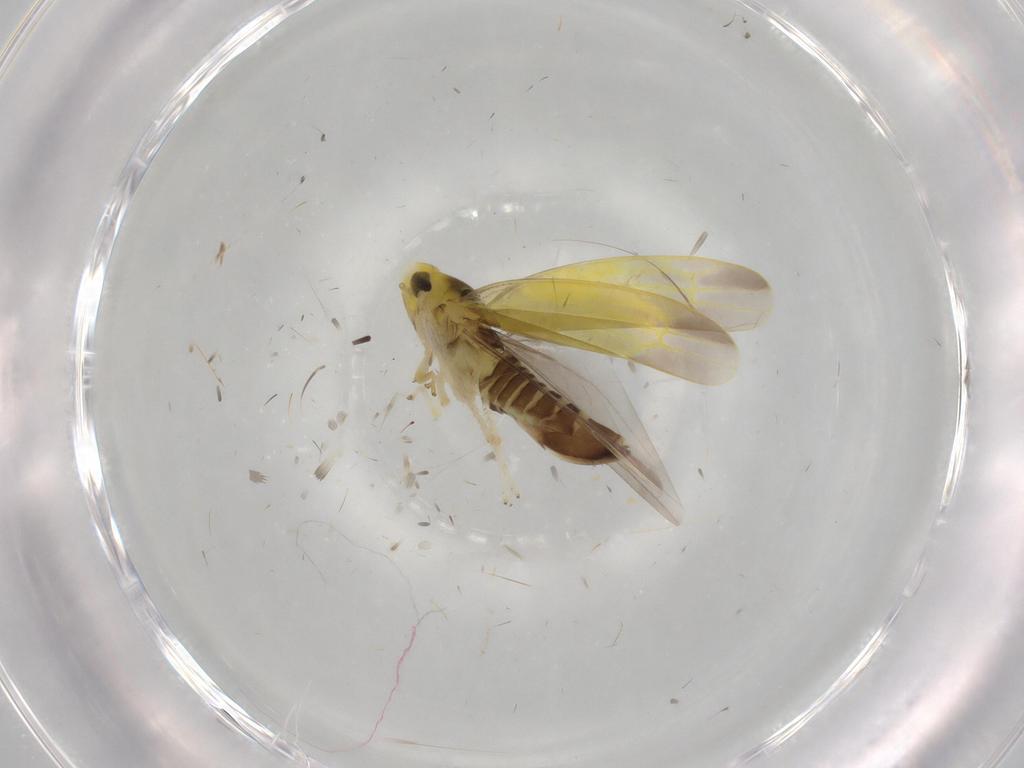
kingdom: Animalia
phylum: Arthropoda
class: Insecta
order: Hemiptera
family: Cicadellidae
